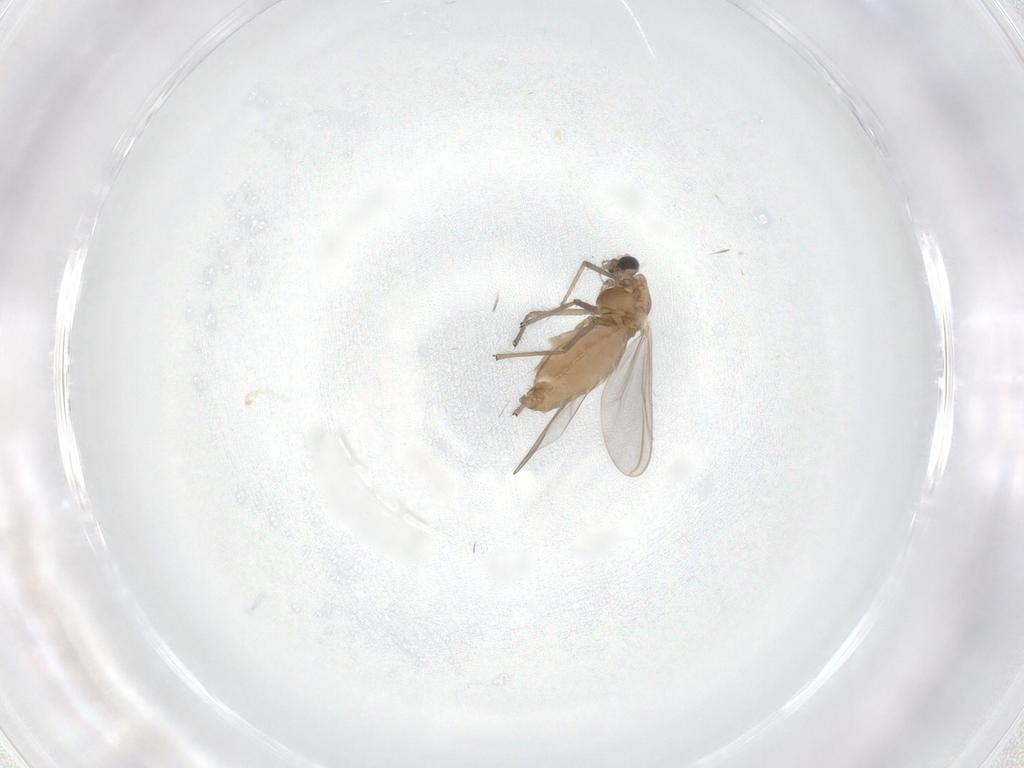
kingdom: Animalia
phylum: Arthropoda
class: Insecta
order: Diptera
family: Chironomidae
